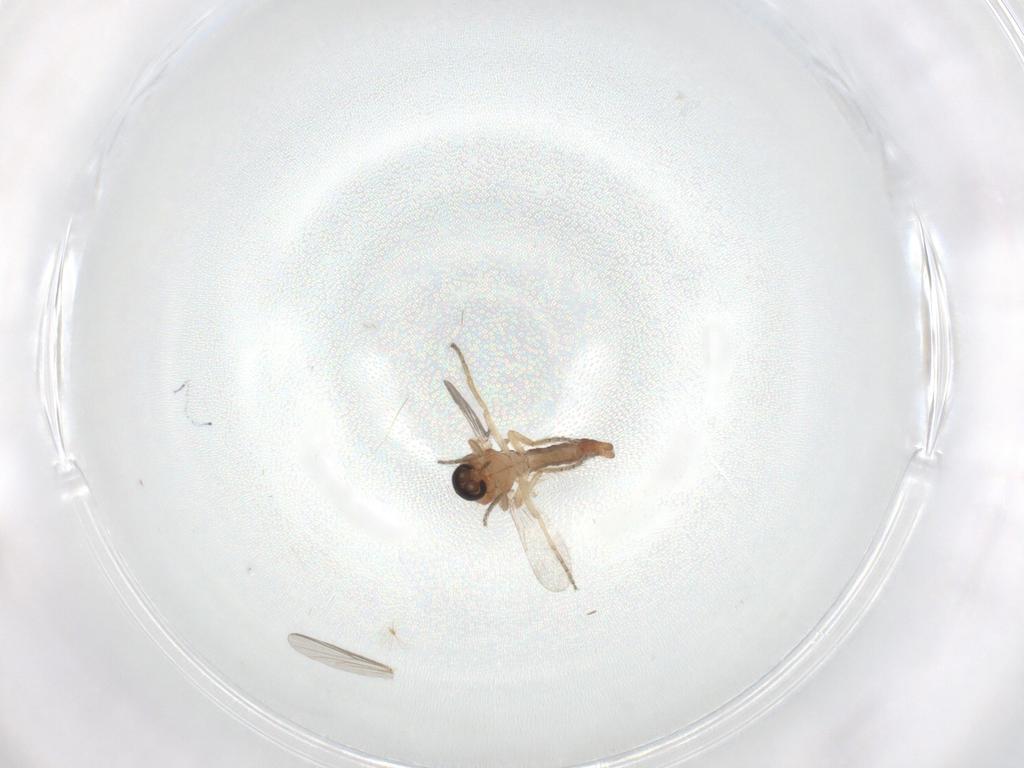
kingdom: Animalia
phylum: Arthropoda
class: Insecta
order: Diptera
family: Ceratopogonidae
